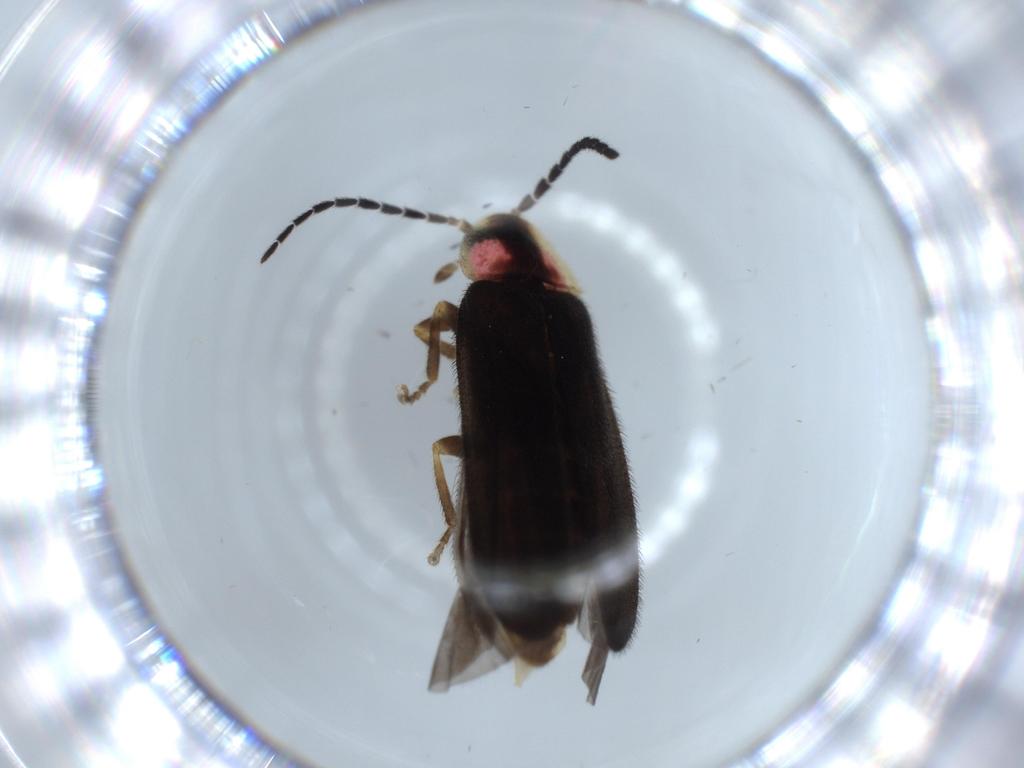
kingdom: Animalia
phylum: Arthropoda
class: Insecta
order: Coleoptera
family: Lampyridae
